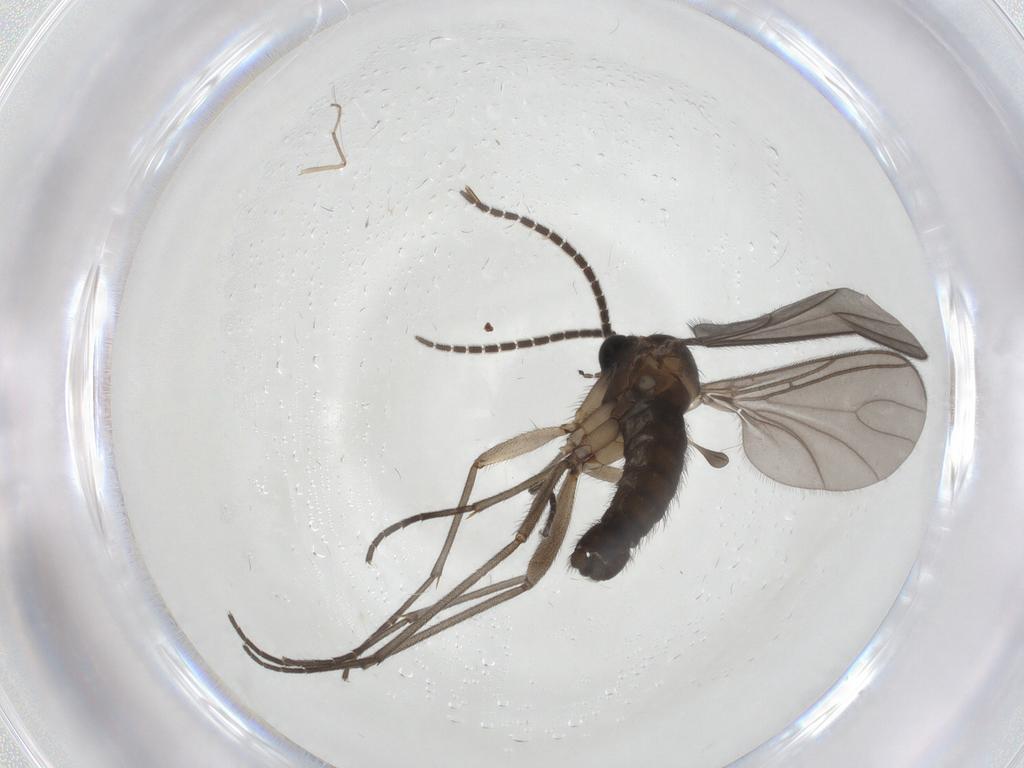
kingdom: Animalia
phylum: Arthropoda
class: Insecta
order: Diptera
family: Sciaridae
